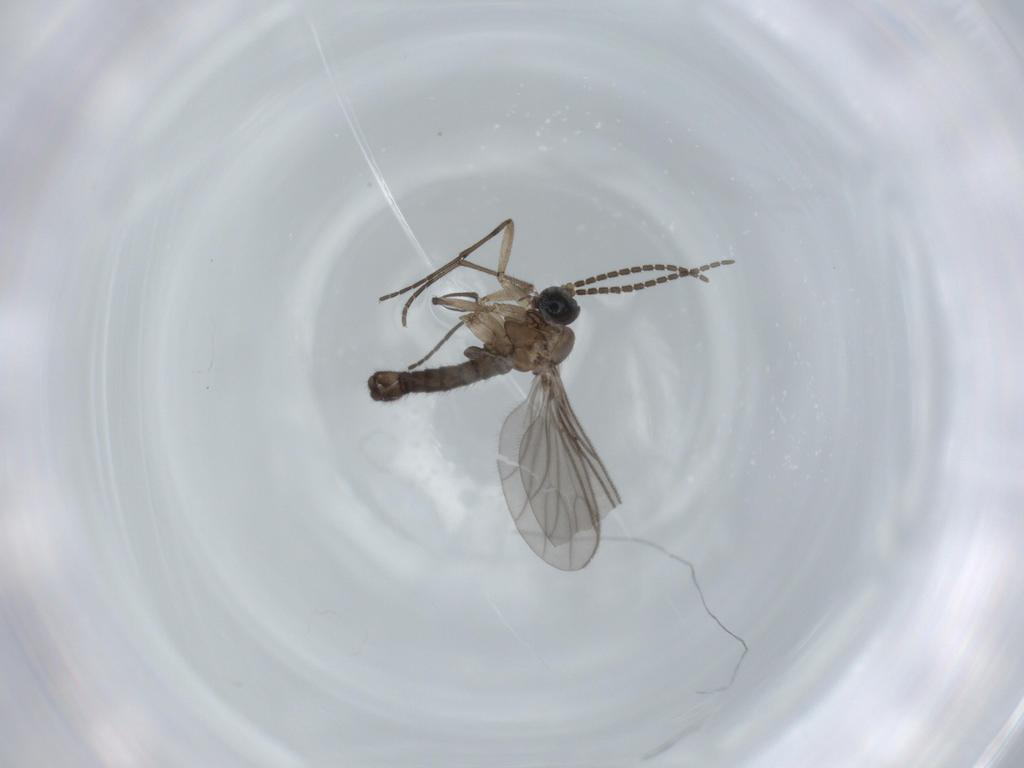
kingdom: Animalia
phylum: Arthropoda
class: Insecta
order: Diptera
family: Sciaridae
